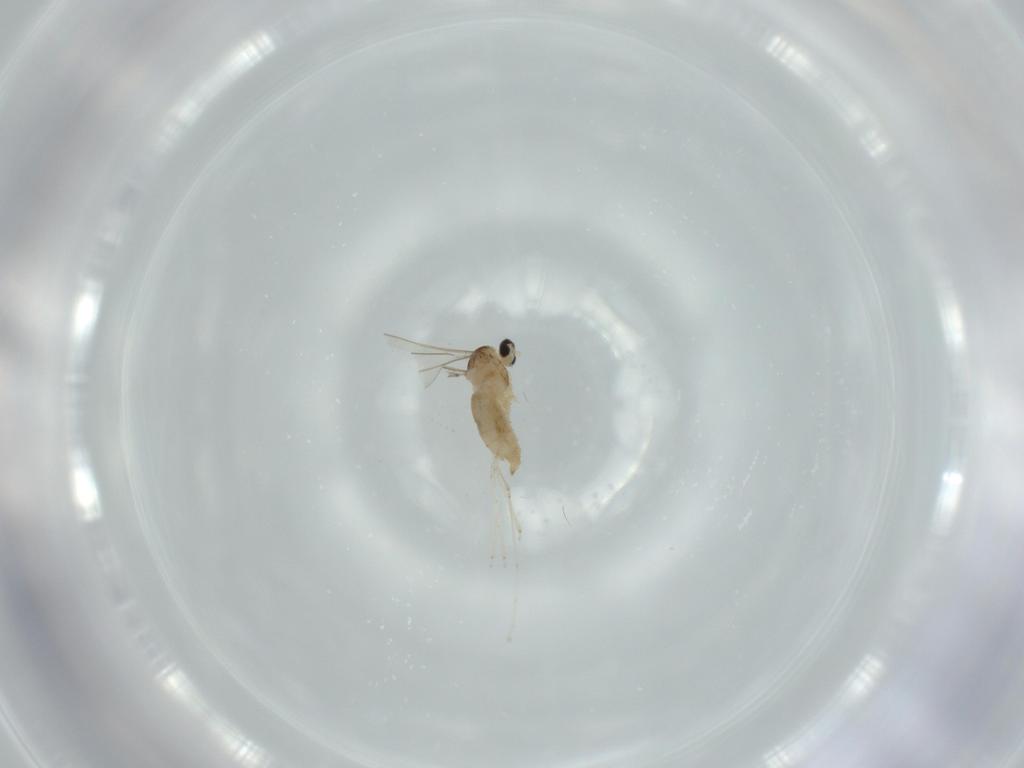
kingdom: Animalia
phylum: Arthropoda
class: Insecta
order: Diptera
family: Cecidomyiidae
